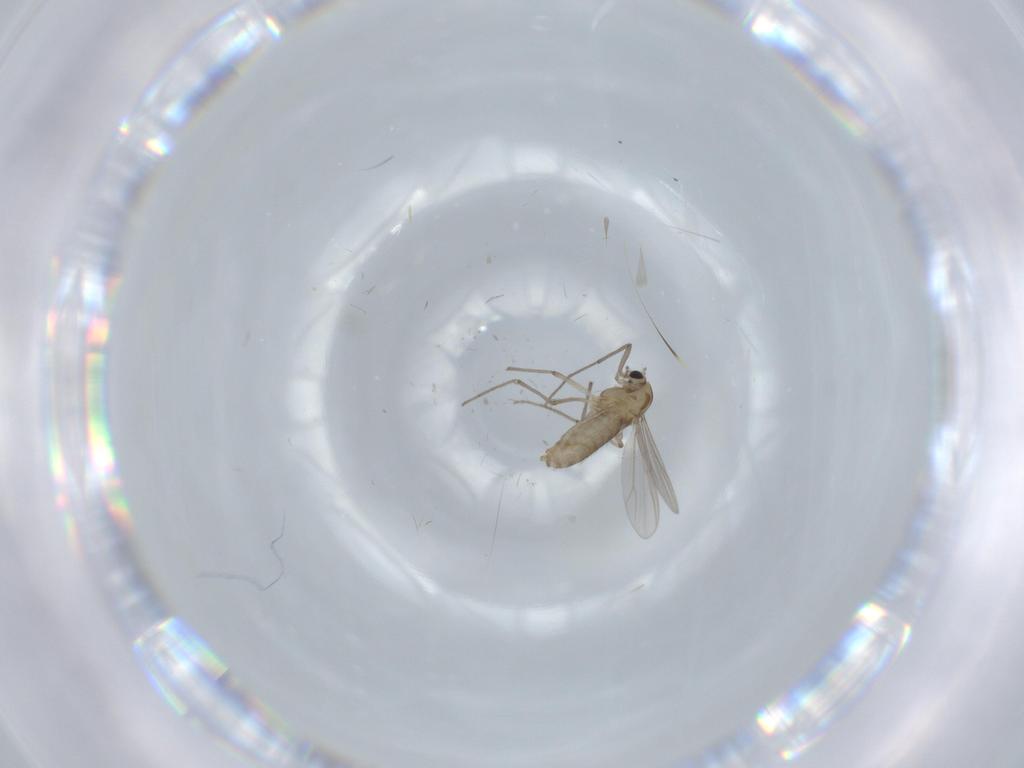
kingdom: Animalia
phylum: Arthropoda
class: Insecta
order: Diptera
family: Chironomidae
